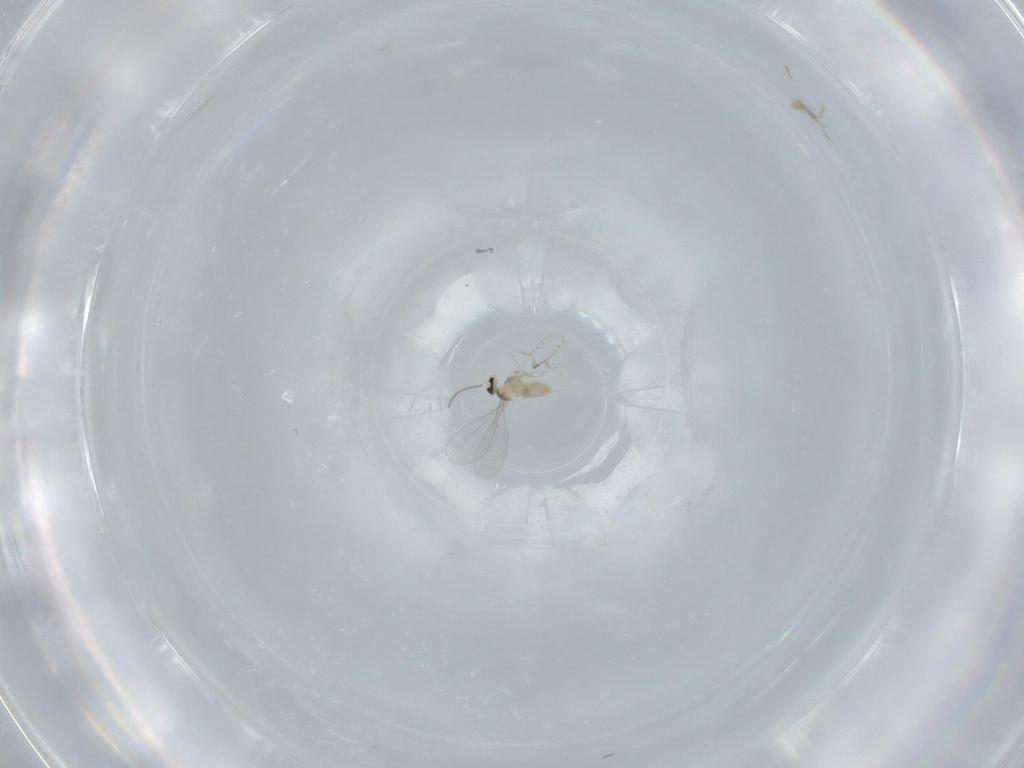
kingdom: Animalia
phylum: Arthropoda
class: Insecta
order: Diptera
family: Cecidomyiidae
